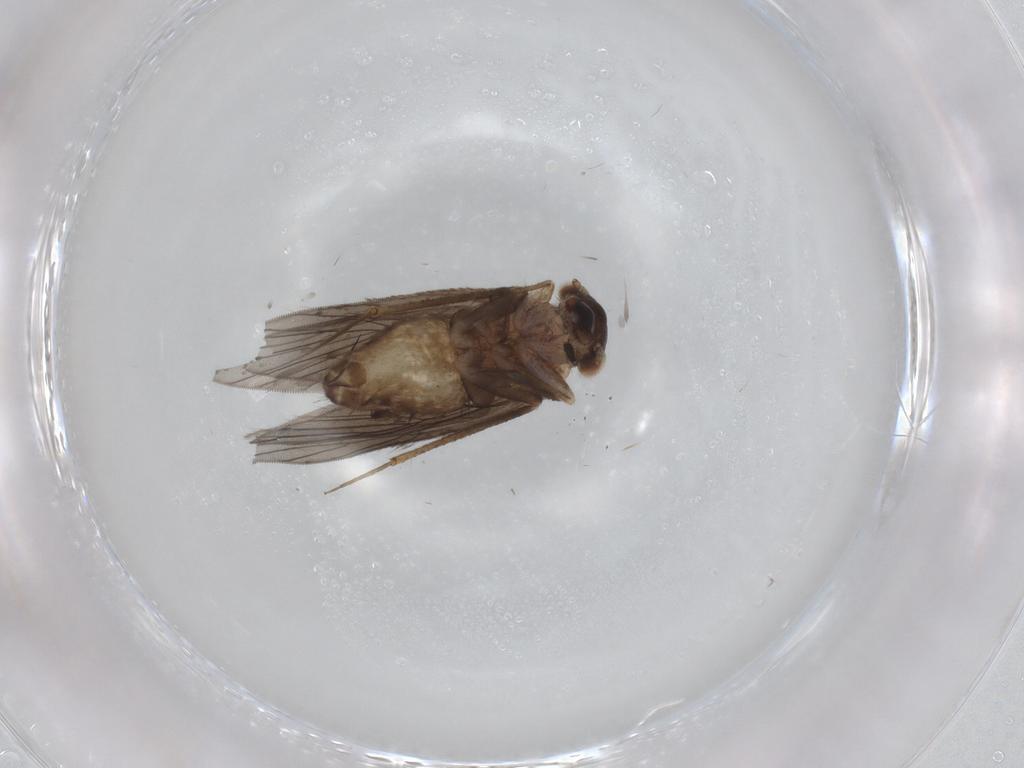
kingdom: Animalia
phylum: Arthropoda
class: Insecta
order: Psocodea
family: Lepidopsocidae
